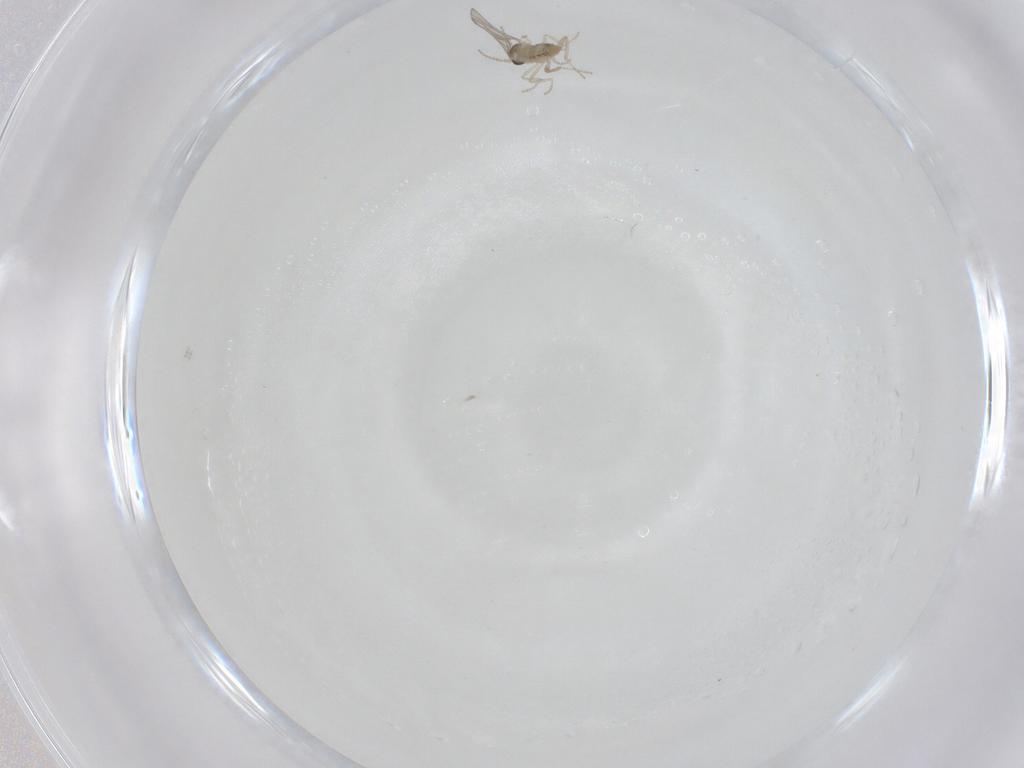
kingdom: Animalia
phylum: Arthropoda
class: Insecta
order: Diptera
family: Cecidomyiidae
